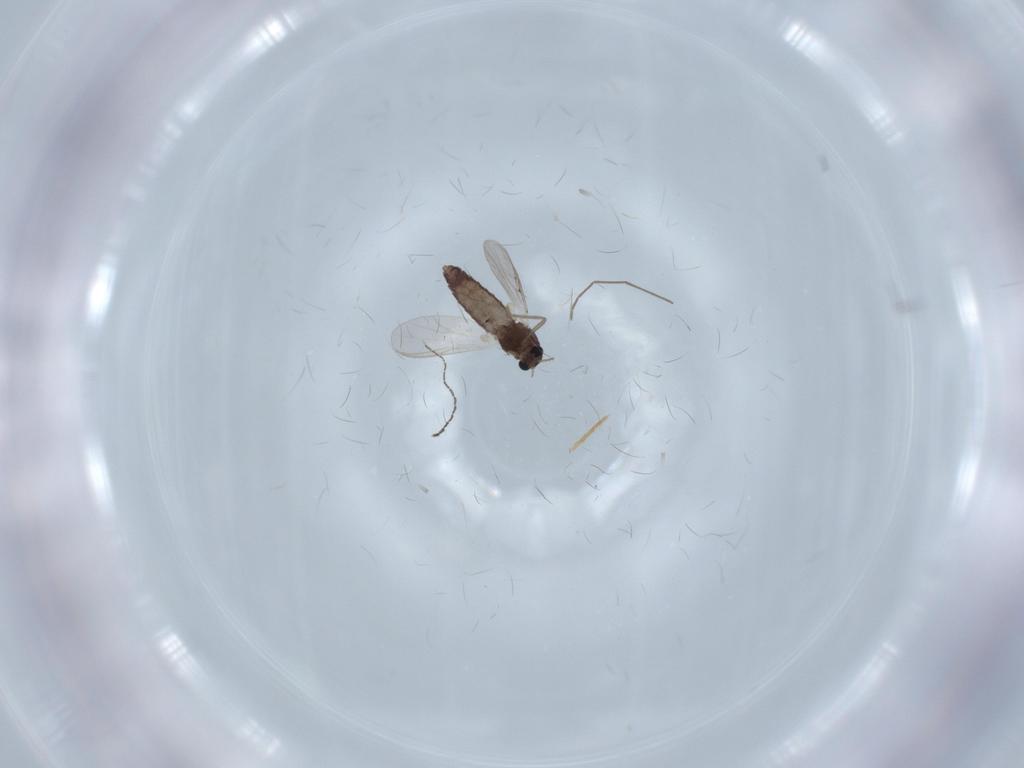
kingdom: Animalia
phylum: Arthropoda
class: Insecta
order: Diptera
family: Chironomidae
